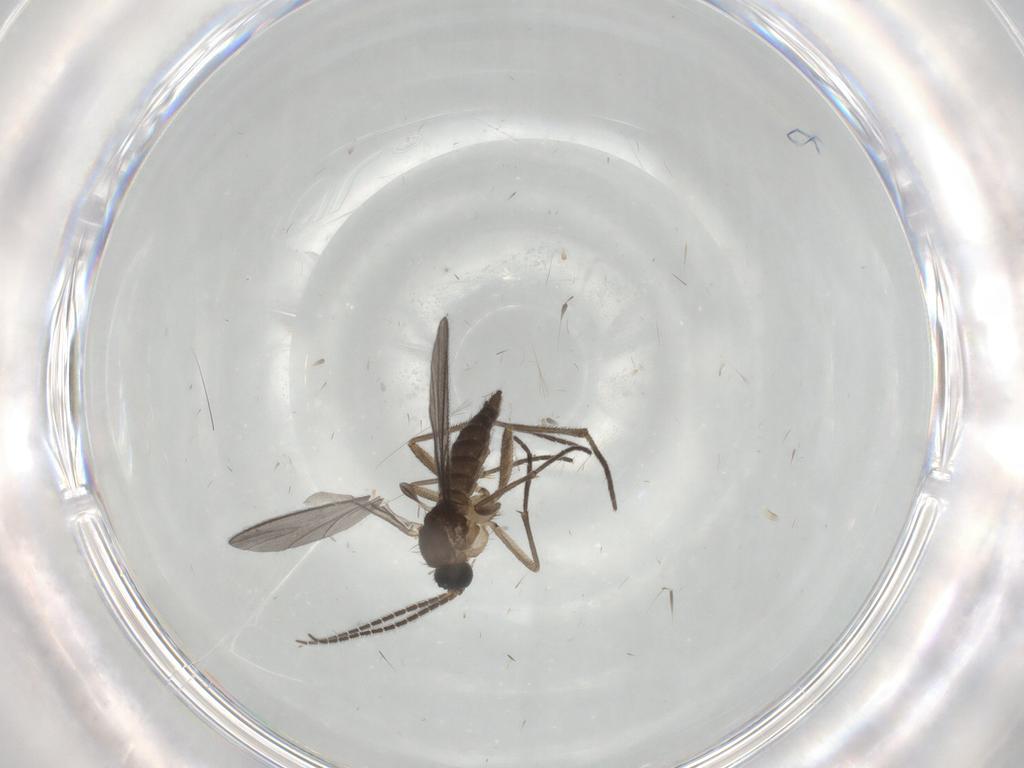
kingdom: Animalia
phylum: Arthropoda
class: Insecta
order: Diptera
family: Sciaridae
